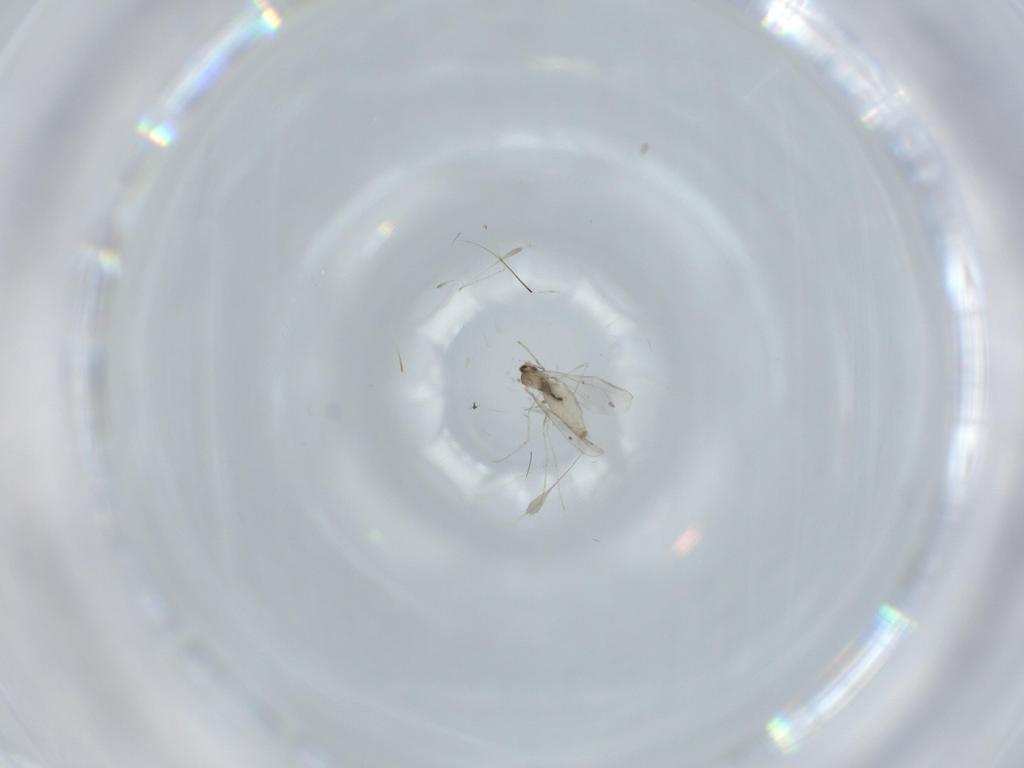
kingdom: Animalia
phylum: Arthropoda
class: Insecta
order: Diptera
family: Cecidomyiidae
